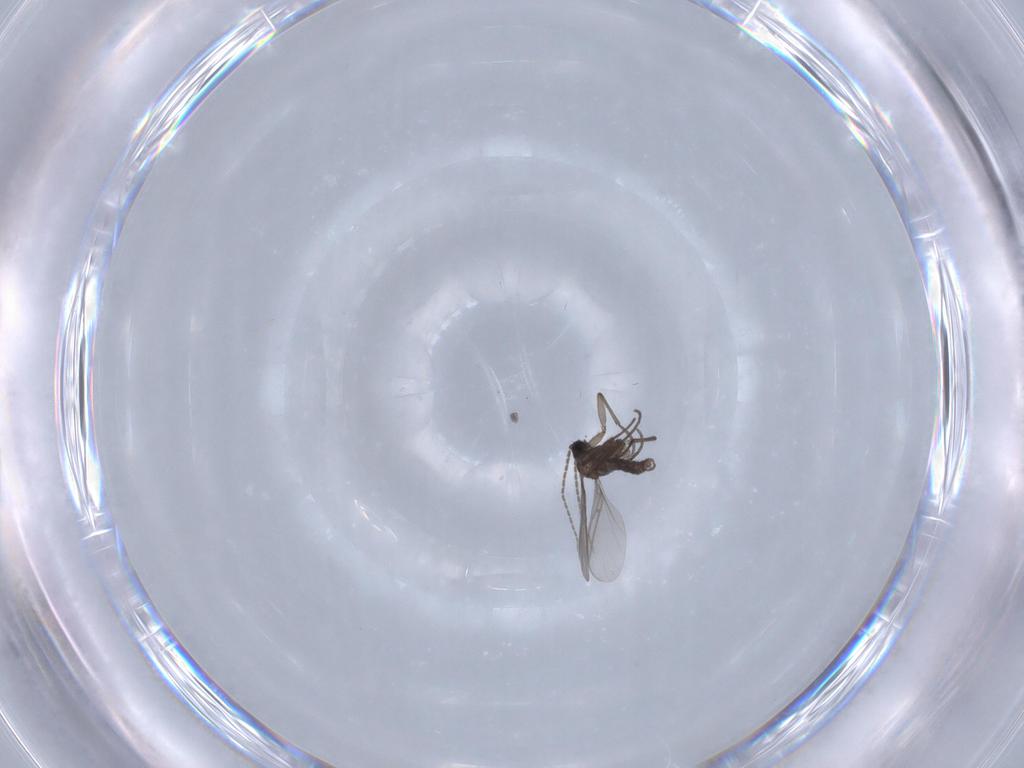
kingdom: Animalia
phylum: Arthropoda
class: Insecta
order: Diptera
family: Sciaridae
